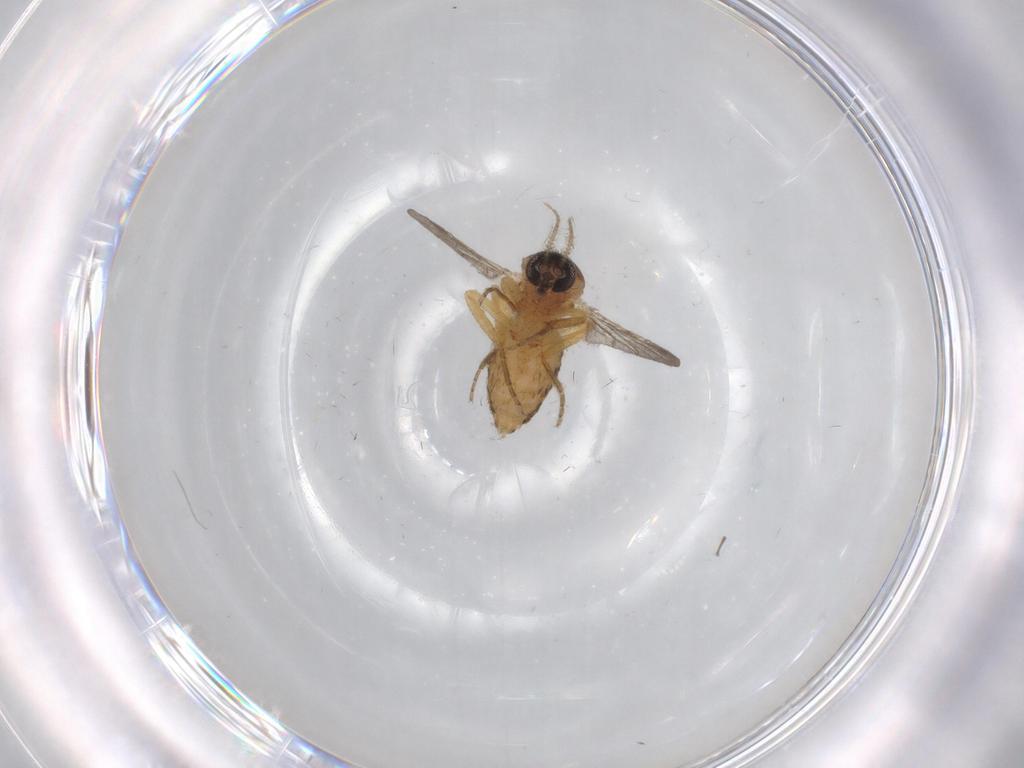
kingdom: Animalia
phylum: Arthropoda
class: Insecta
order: Diptera
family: Ceratopogonidae
